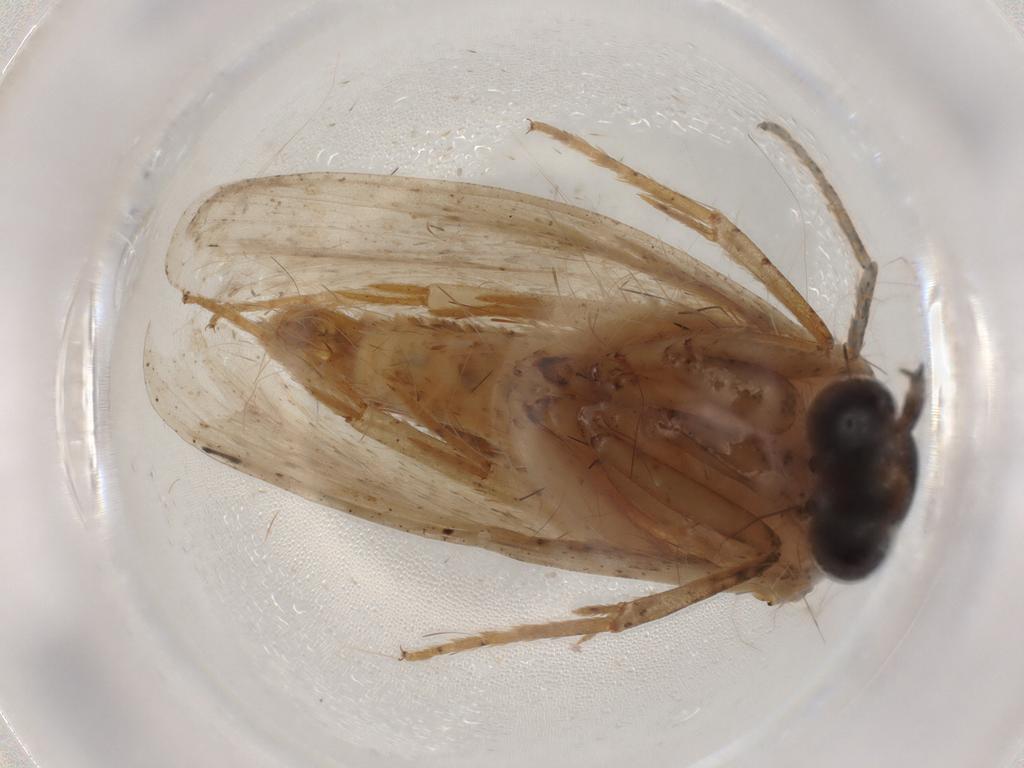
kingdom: Animalia
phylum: Arthropoda
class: Insecta
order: Lepidoptera
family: Elachistidae
